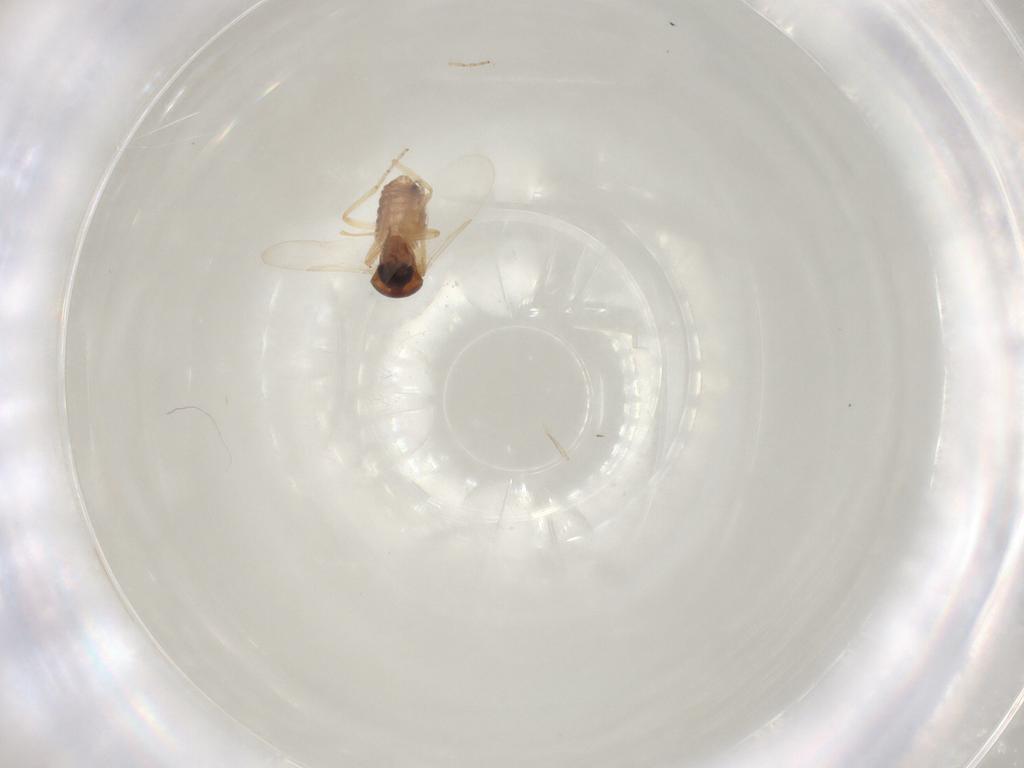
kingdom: Animalia
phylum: Arthropoda
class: Insecta
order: Diptera
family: Ceratopogonidae
